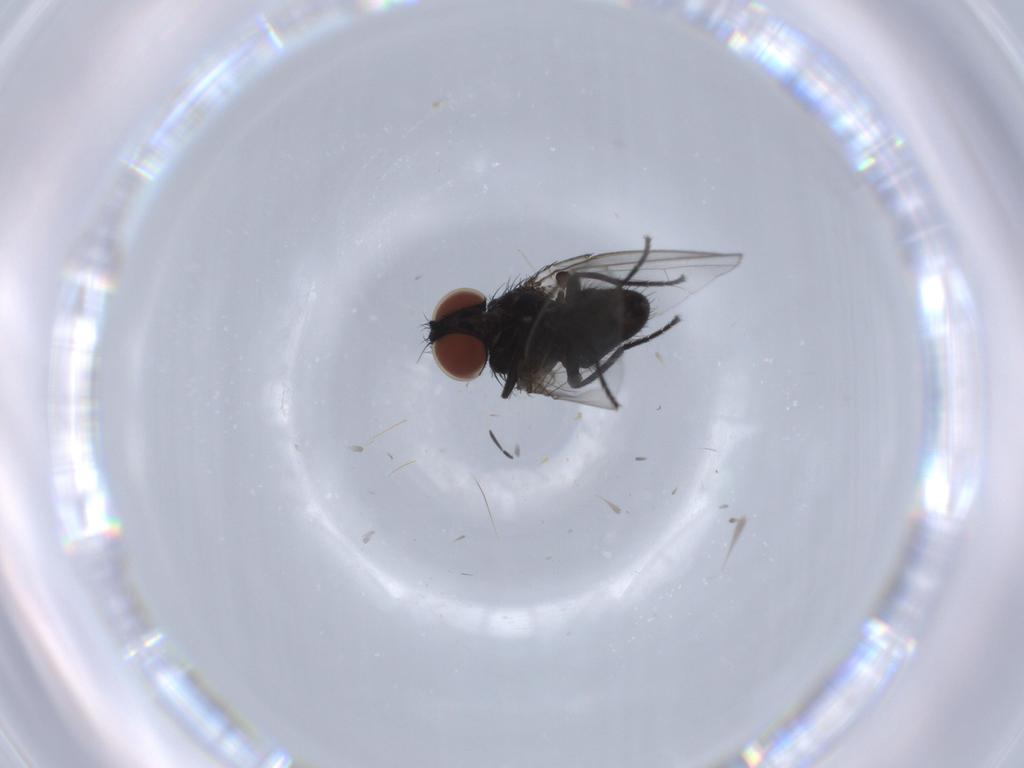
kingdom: Animalia
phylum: Arthropoda
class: Insecta
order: Diptera
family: Milichiidae
